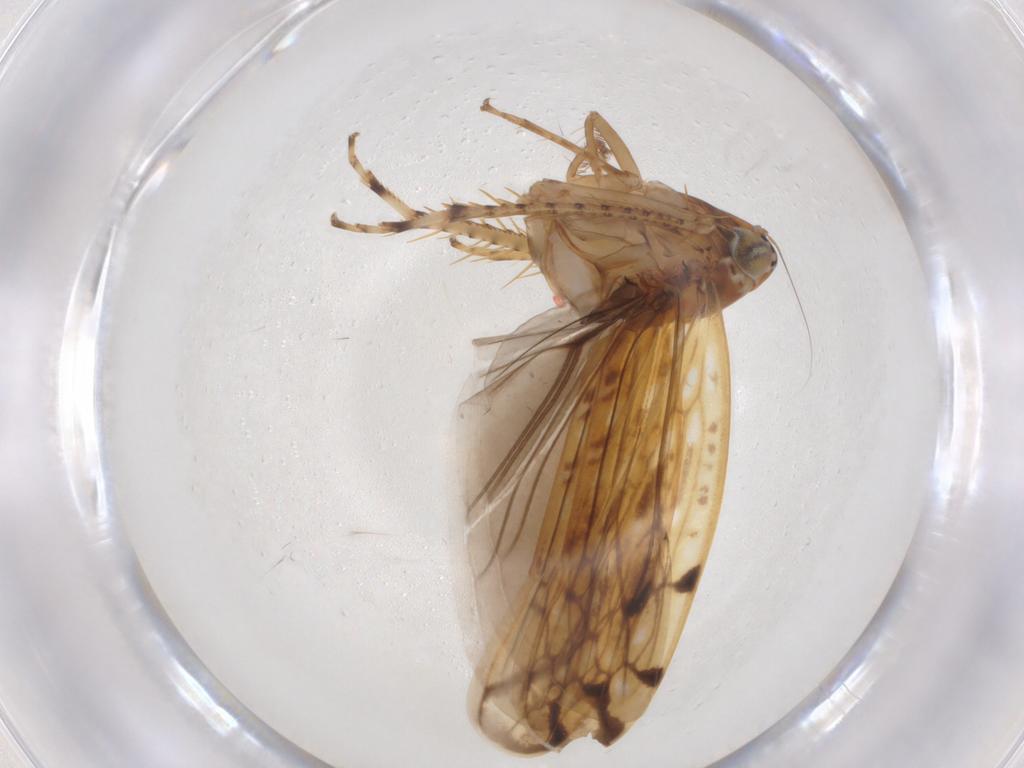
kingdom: Animalia
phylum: Arthropoda
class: Insecta
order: Hemiptera
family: Cicadellidae
